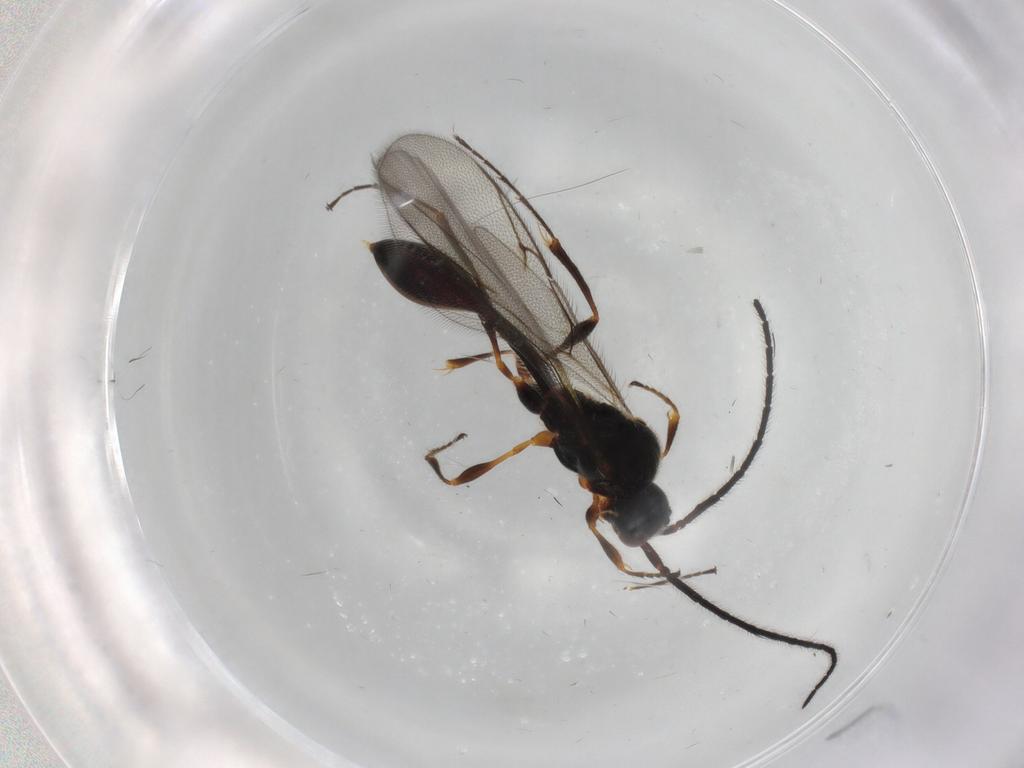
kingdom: Animalia
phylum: Arthropoda
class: Insecta
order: Hymenoptera
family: Diapriidae
